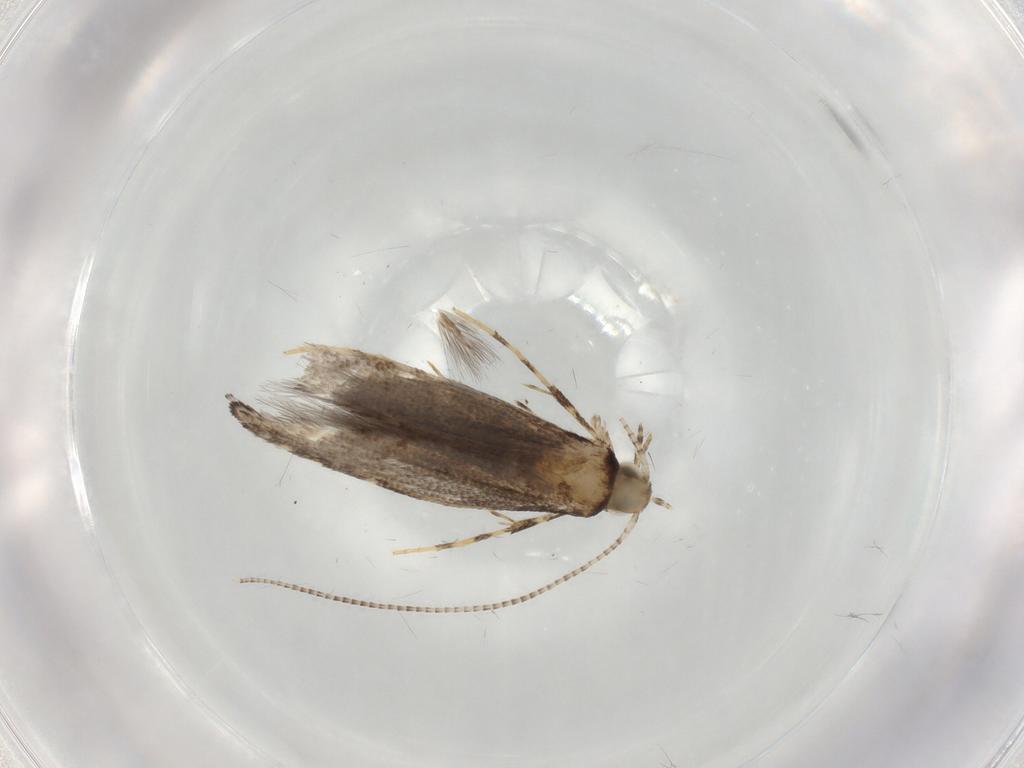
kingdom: Animalia
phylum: Arthropoda
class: Insecta
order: Lepidoptera
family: Gracillariidae
